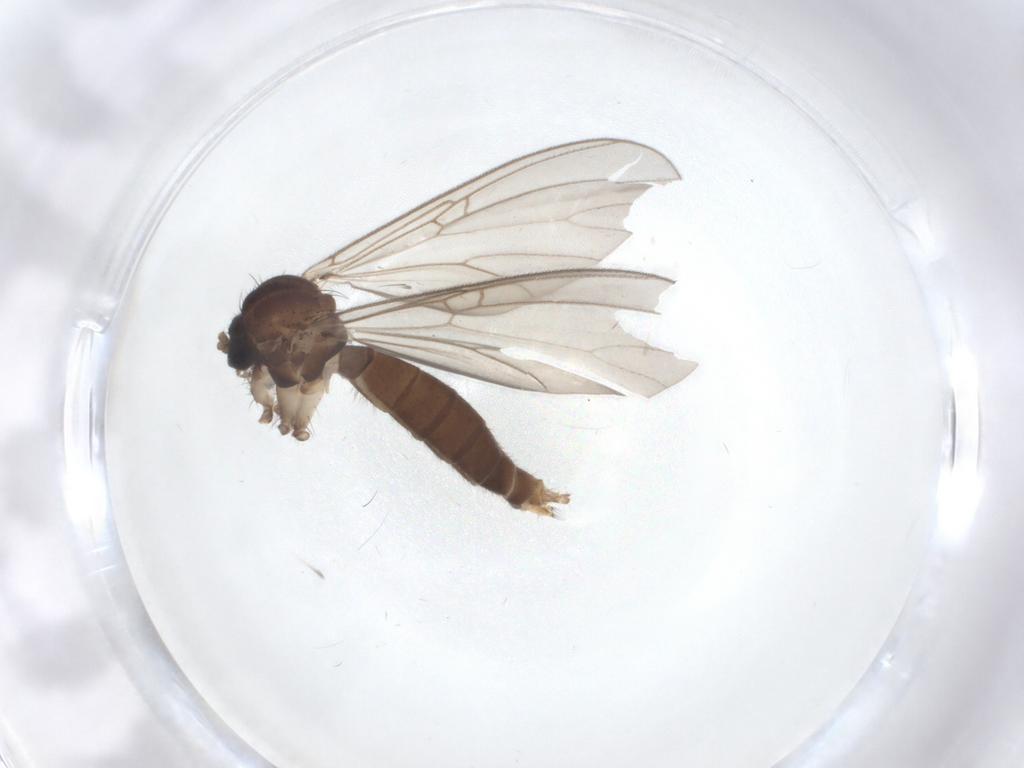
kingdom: Animalia
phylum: Arthropoda
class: Insecta
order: Diptera
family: Mycetophilidae
